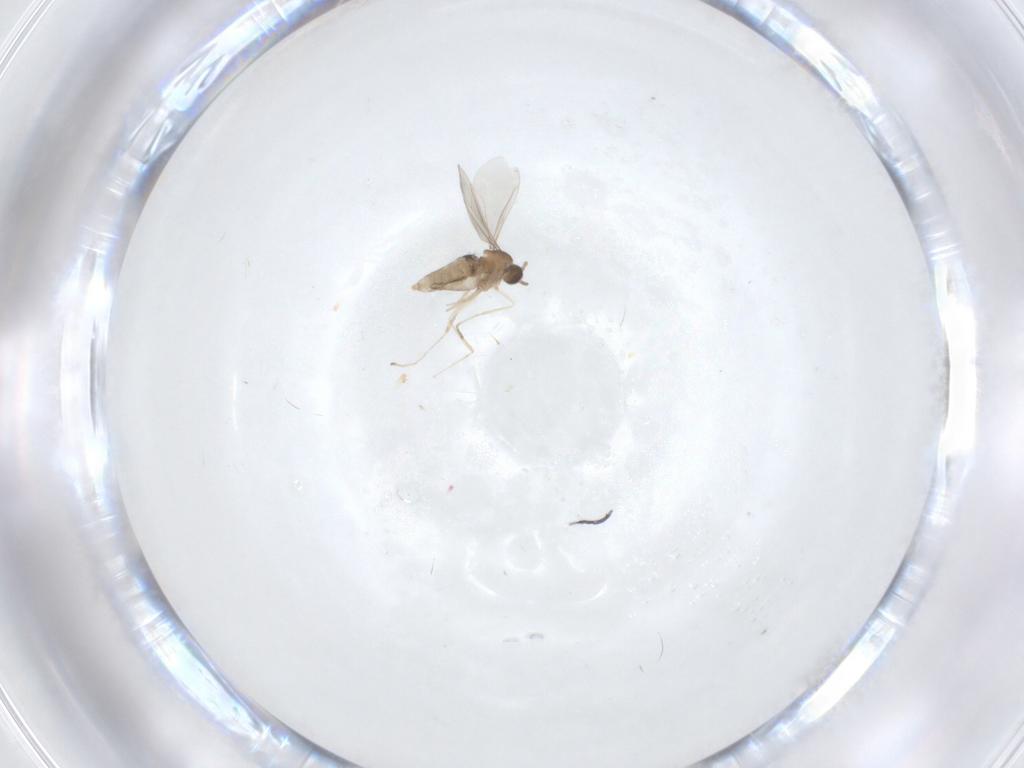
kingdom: Animalia
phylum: Arthropoda
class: Insecta
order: Diptera
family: Cecidomyiidae
